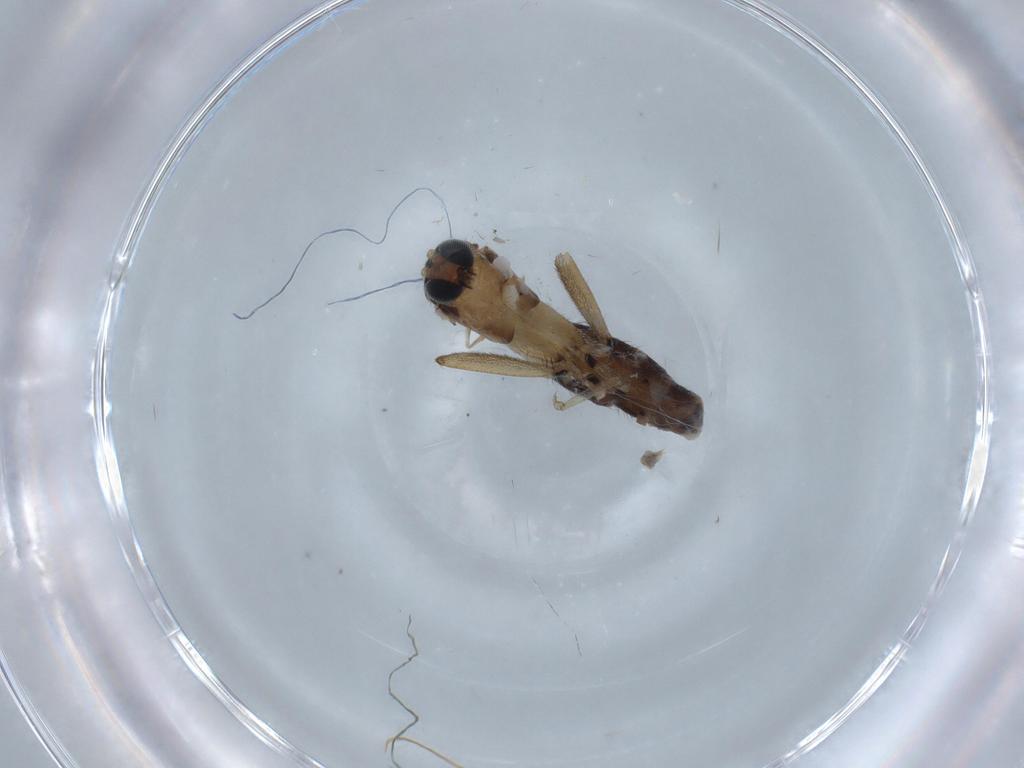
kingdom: Animalia
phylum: Arthropoda
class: Insecta
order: Diptera
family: Sciaridae
